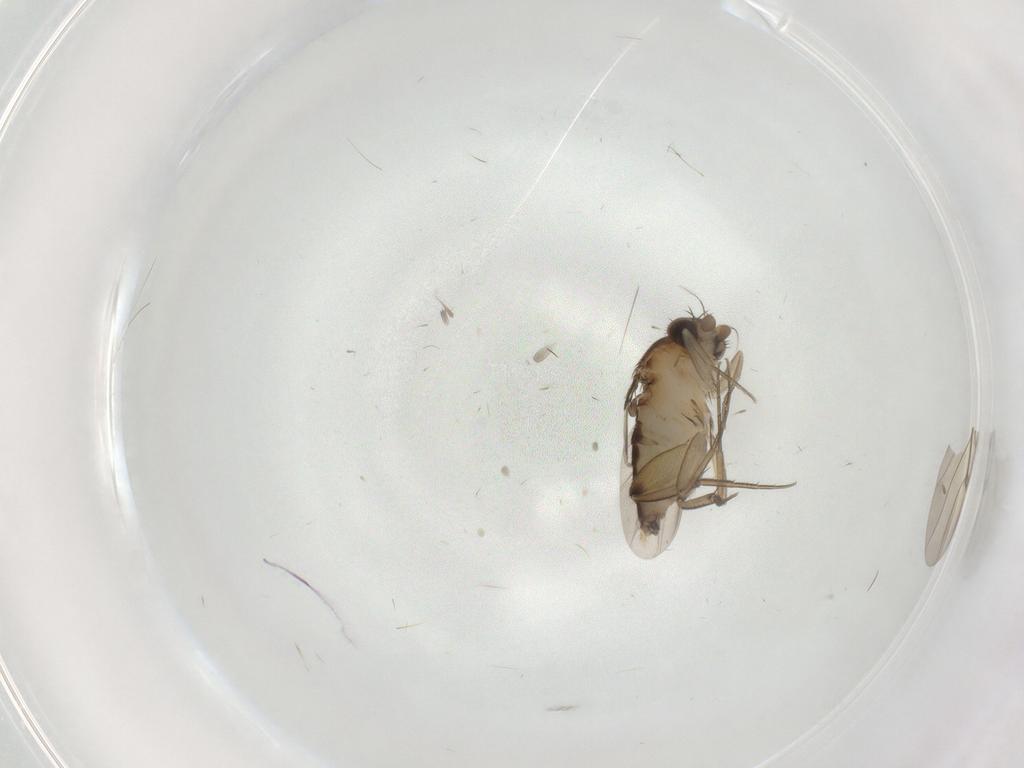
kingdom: Animalia
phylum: Arthropoda
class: Insecta
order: Diptera
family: Phoridae
